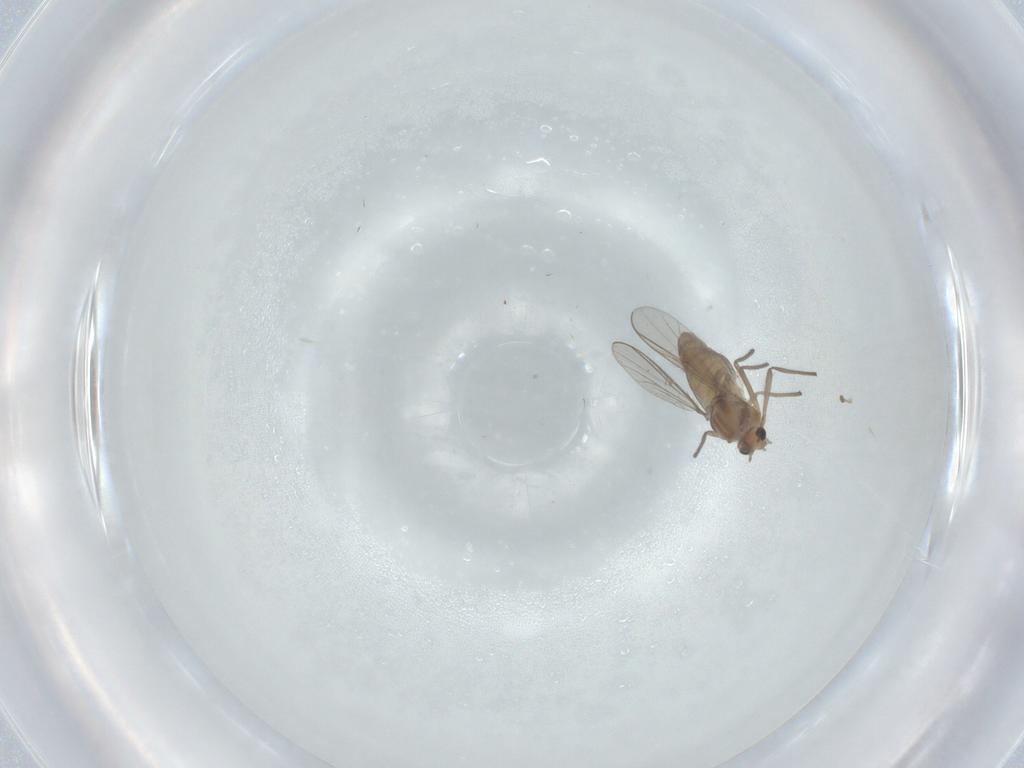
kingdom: Animalia
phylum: Arthropoda
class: Insecta
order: Diptera
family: Chironomidae
